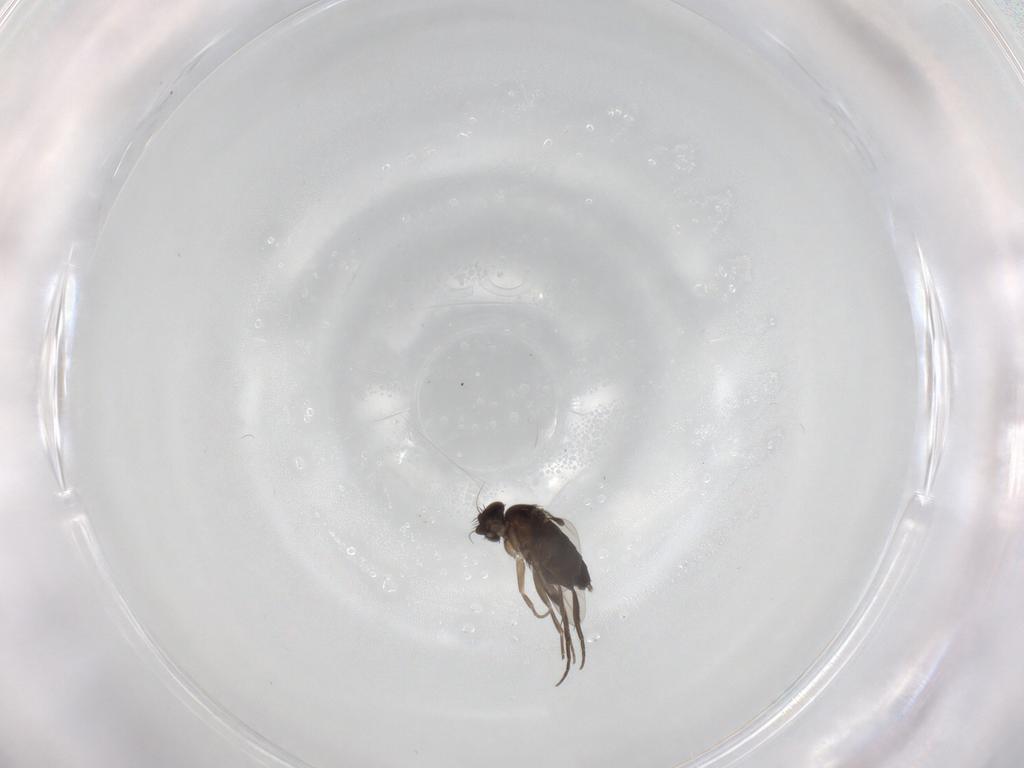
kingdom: Animalia
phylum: Arthropoda
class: Insecta
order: Diptera
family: Phoridae
